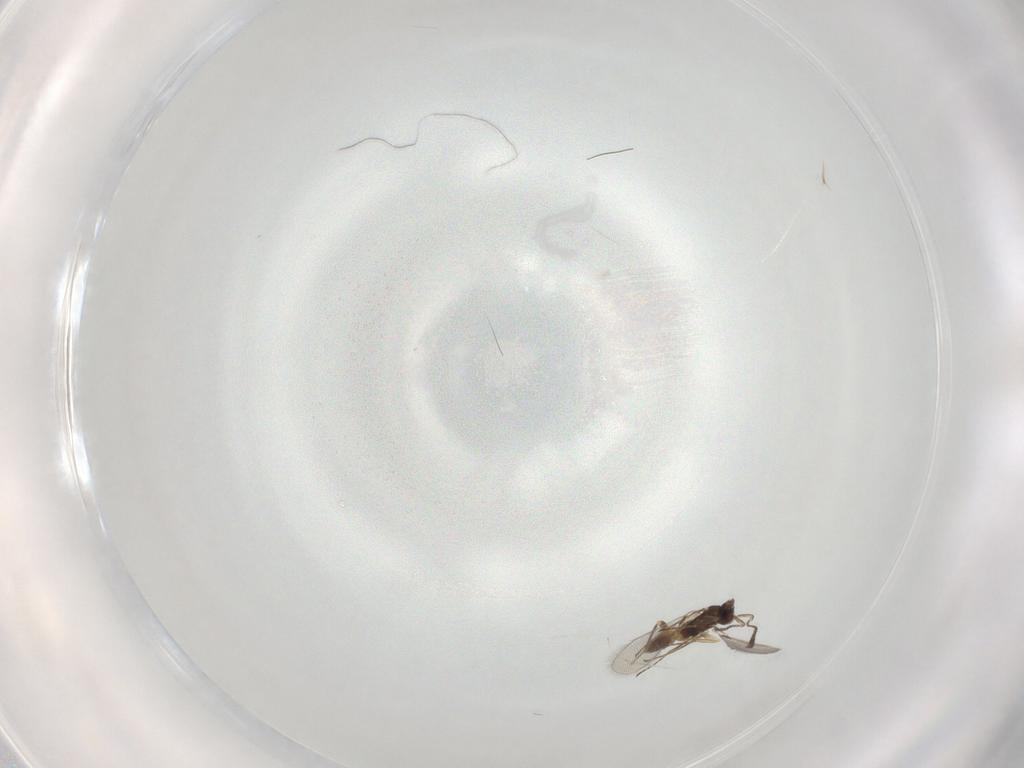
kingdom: Animalia
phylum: Arthropoda
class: Insecta
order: Hymenoptera
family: Mymaridae
